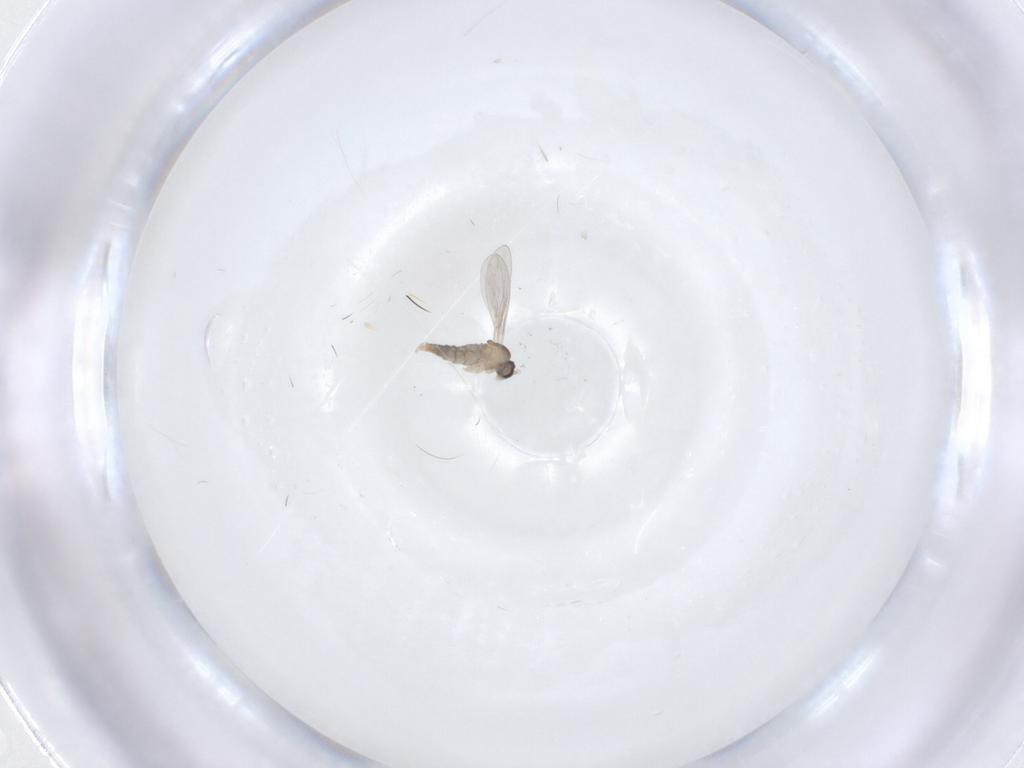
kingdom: Animalia
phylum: Arthropoda
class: Insecta
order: Diptera
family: Cecidomyiidae
